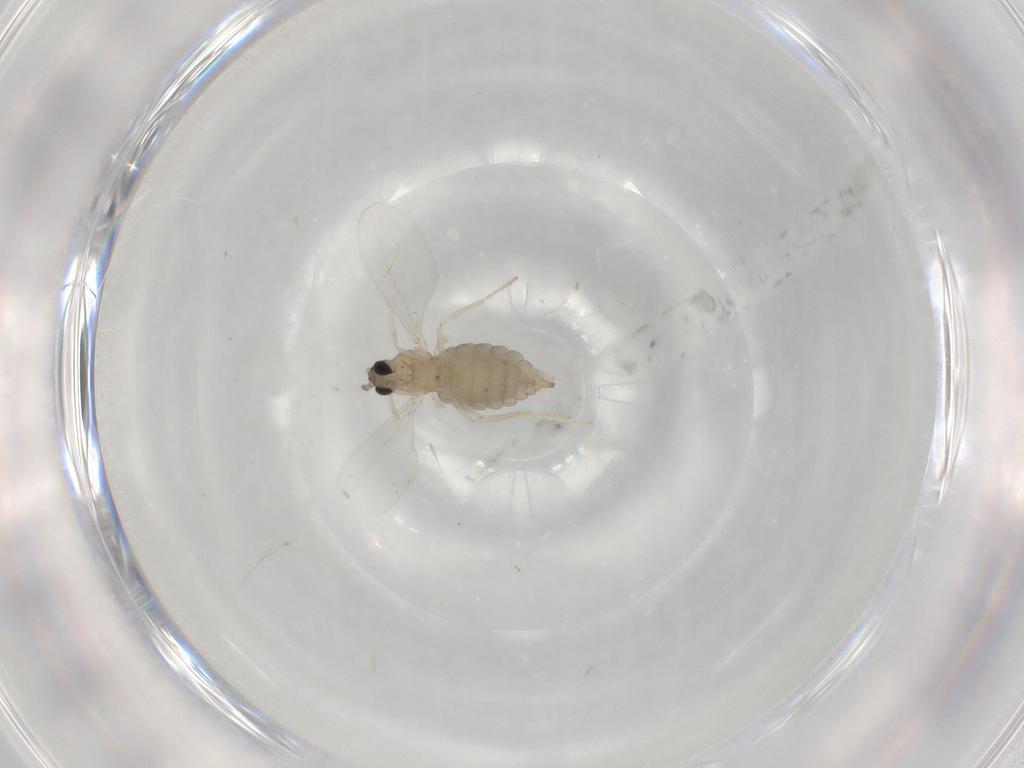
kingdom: Animalia
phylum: Arthropoda
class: Insecta
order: Diptera
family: Cecidomyiidae
